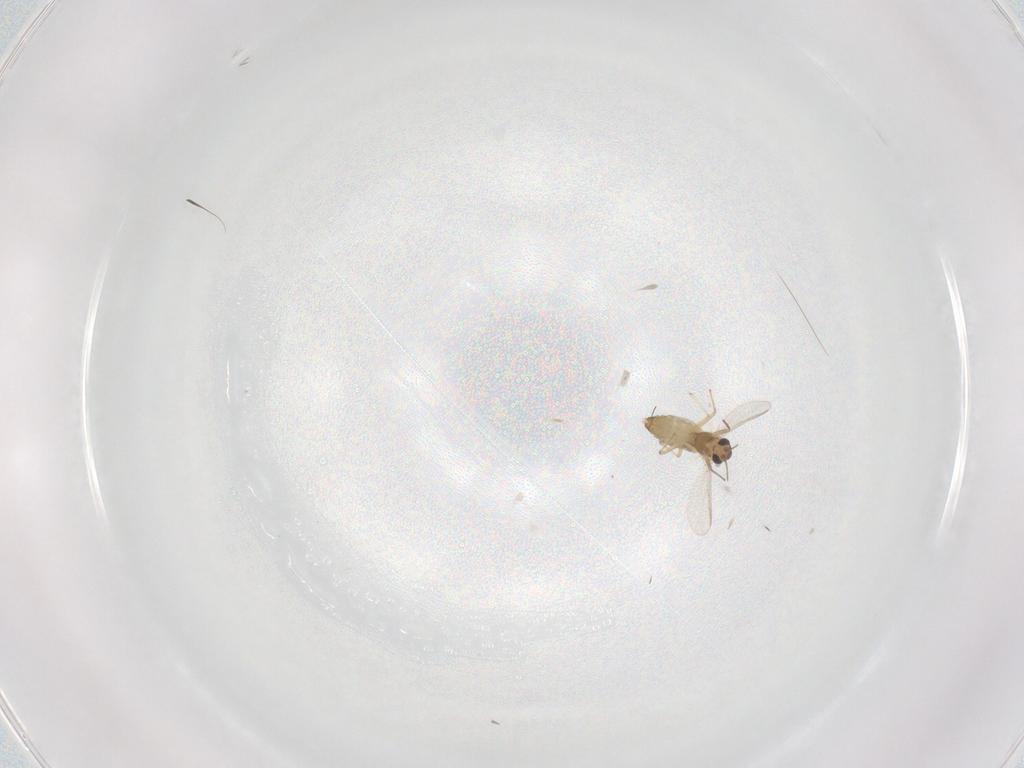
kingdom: Animalia
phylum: Arthropoda
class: Insecta
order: Diptera
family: Chironomidae
